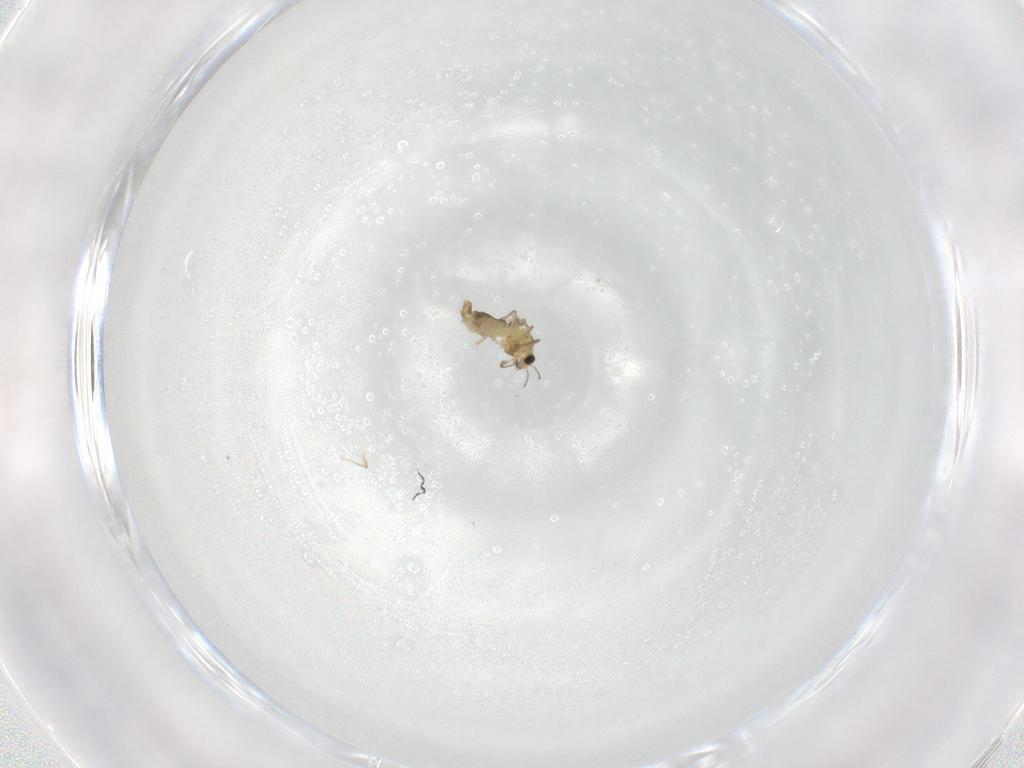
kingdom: Animalia
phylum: Arthropoda
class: Insecta
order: Diptera
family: Chironomidae
